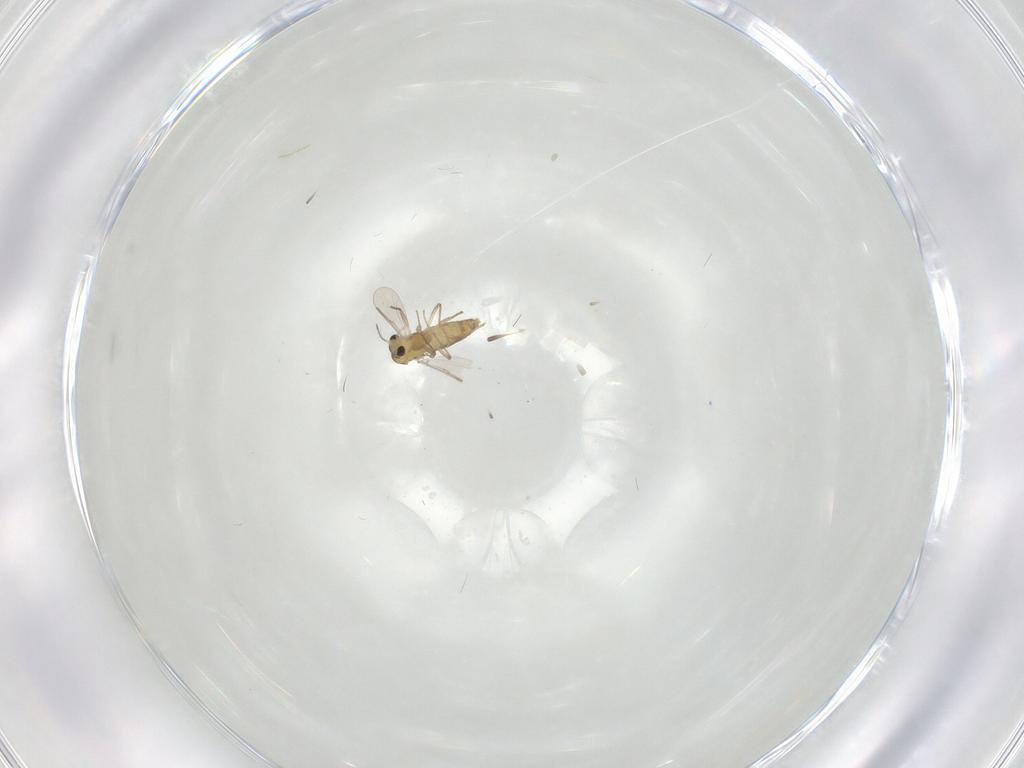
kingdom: Animalia
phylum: Arthropoda
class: Insecta
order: Diptera
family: Chironomidae
